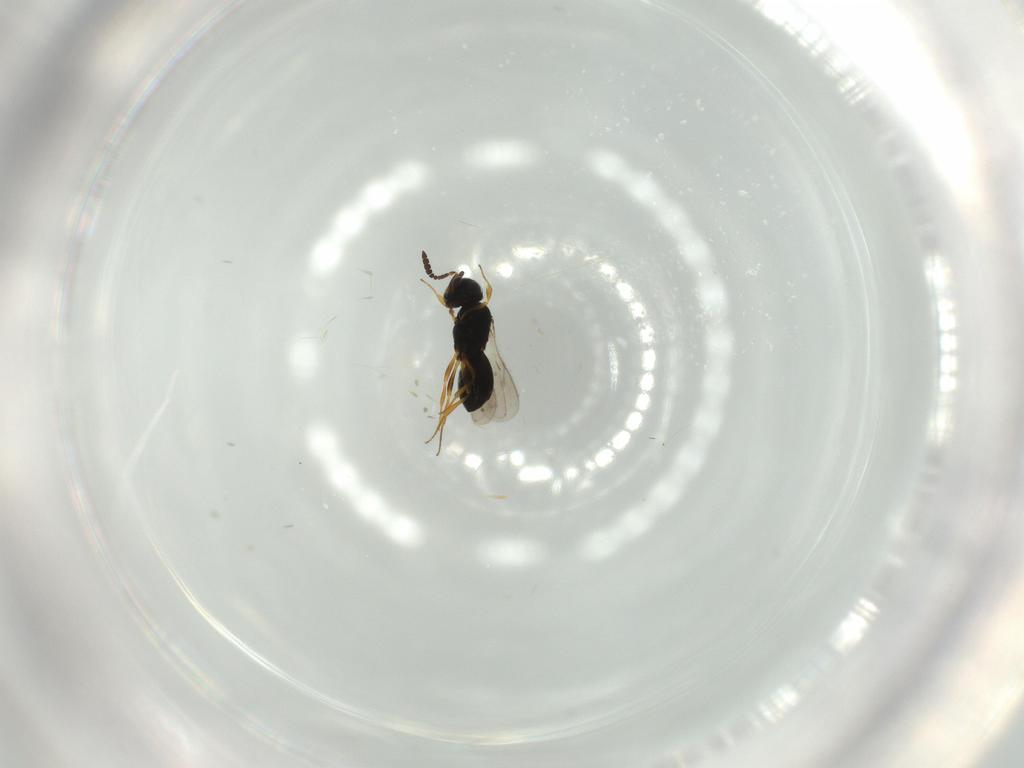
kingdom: Animalia
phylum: Arthropoda
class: Insecta
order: Hymenoptera
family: Scelionidae
